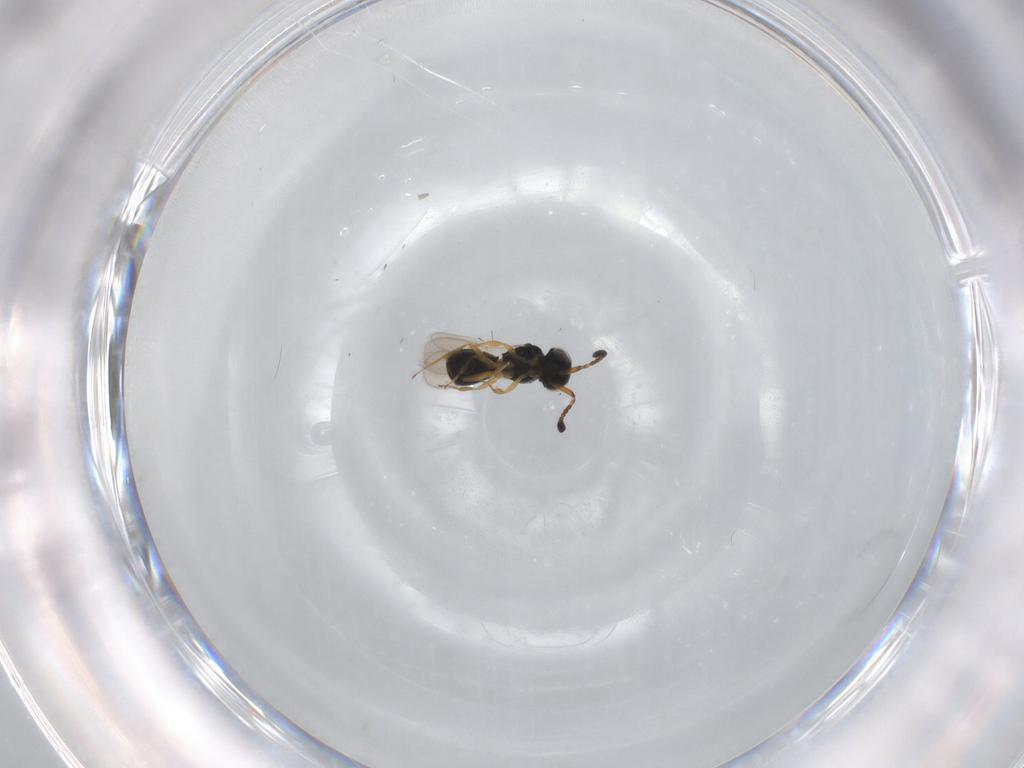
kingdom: Animalia
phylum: Arthropoda
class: Insecta
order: Hymenoptera
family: Scelionidae
